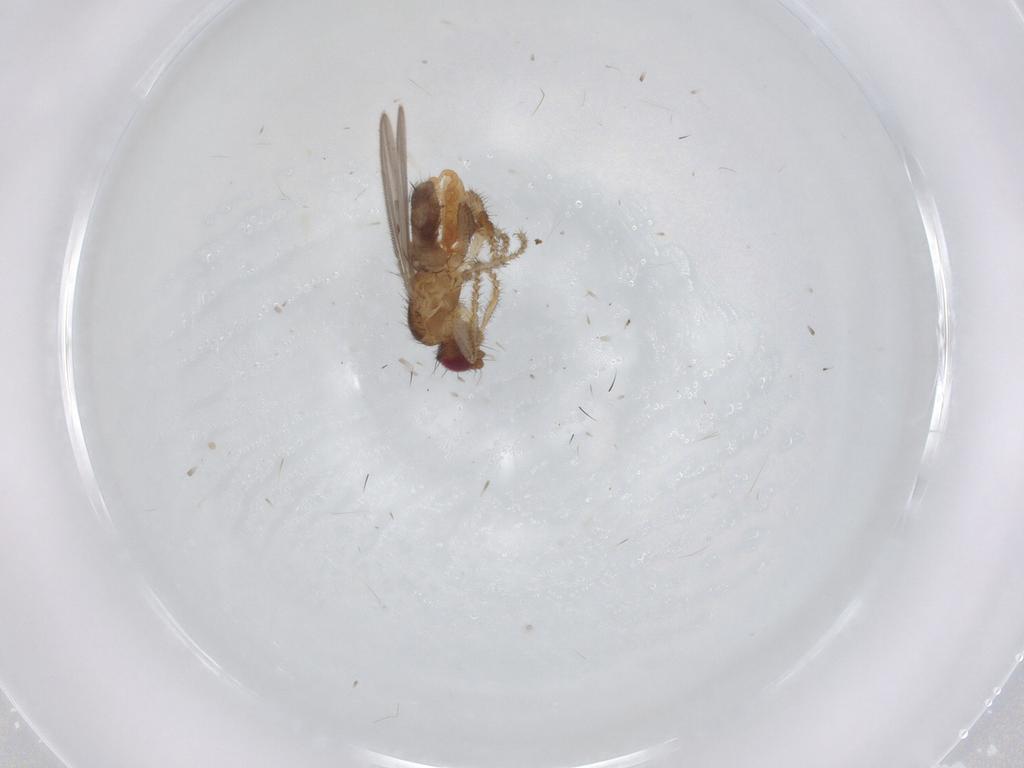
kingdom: Animalia
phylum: Arthropoda
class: Insecta
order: Diptera
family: Sphaeroceridae
